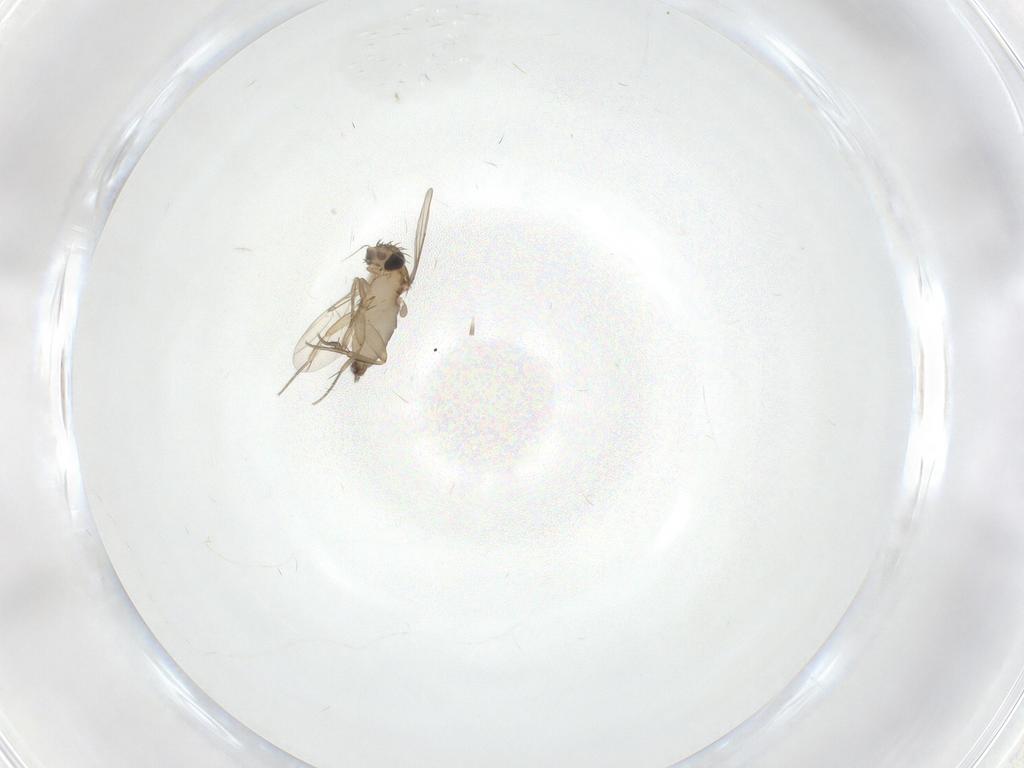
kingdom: Animalia
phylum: Arthropoda
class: Insecta
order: Diptera
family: Phoridae
